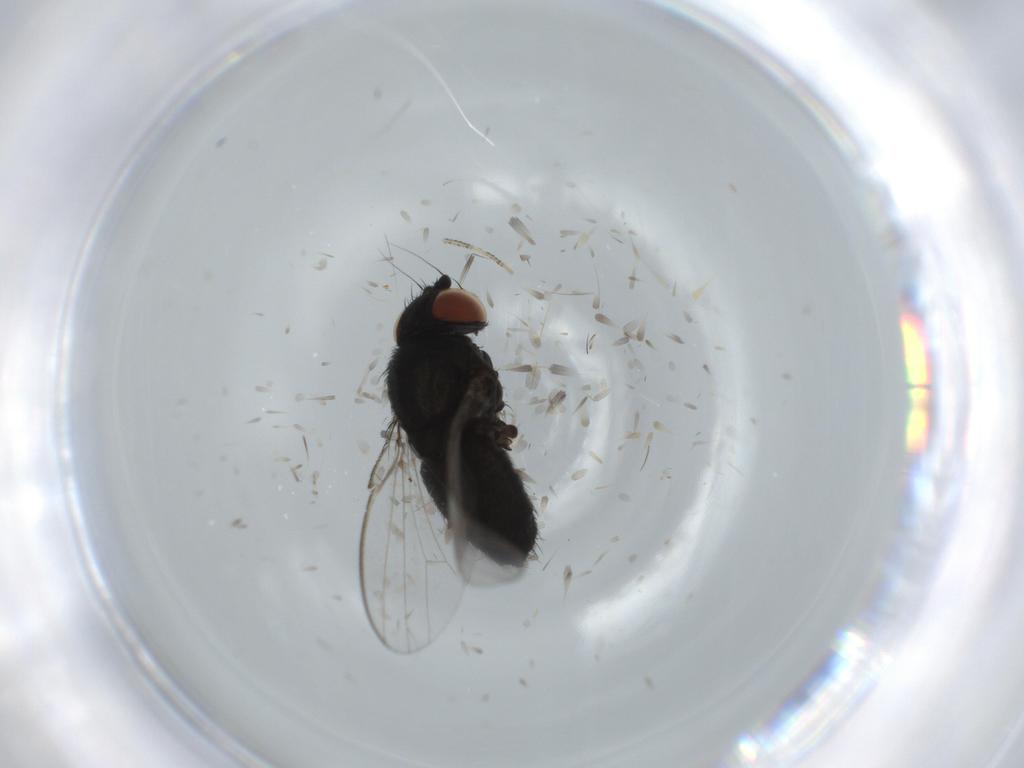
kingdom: Animalia
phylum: Arthropoda
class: Insecta
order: Diptera
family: Milichiidae
